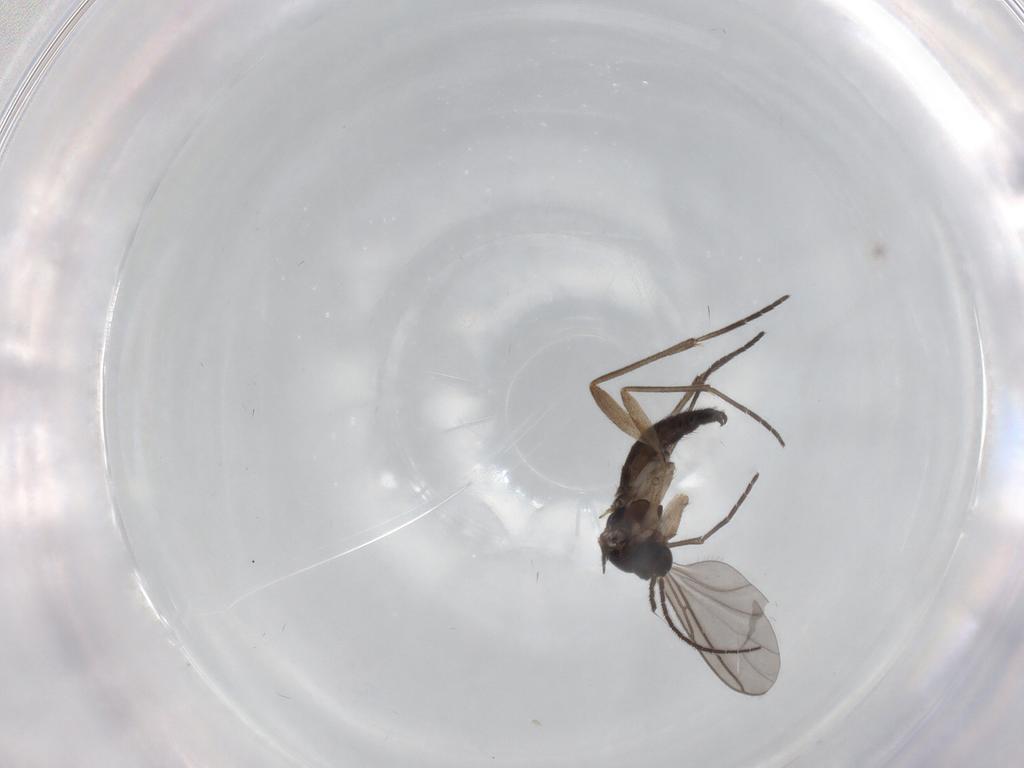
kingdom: Animalia
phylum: Arthropoda
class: Insecta
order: Diptera
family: Sciaridae
